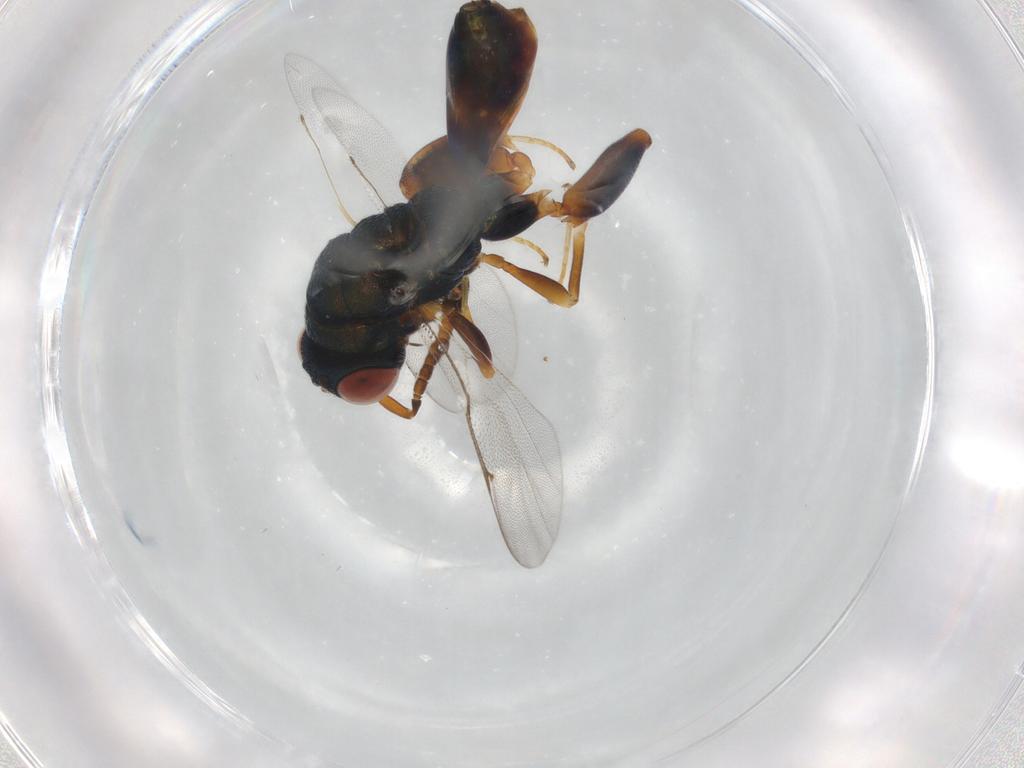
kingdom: Animalia
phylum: Arthropoda
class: Insecta
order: Hymenoptera
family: Torymidae
